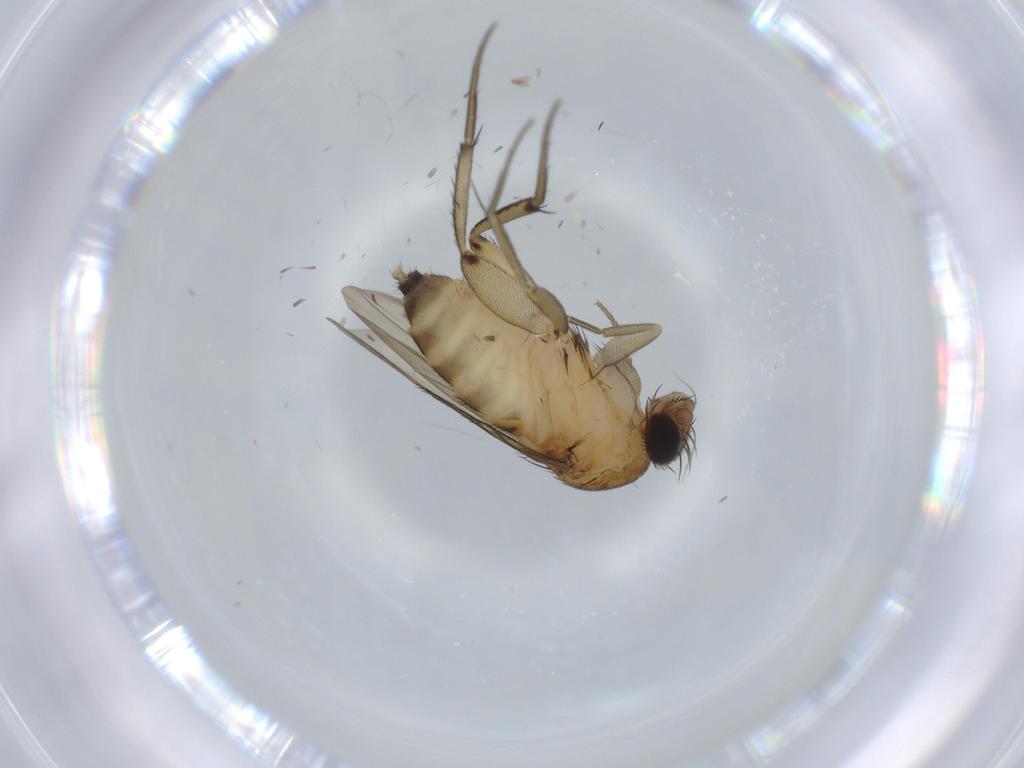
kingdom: Animalia
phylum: Arthropoda
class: Insecta
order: Diptera
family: Phoridae
